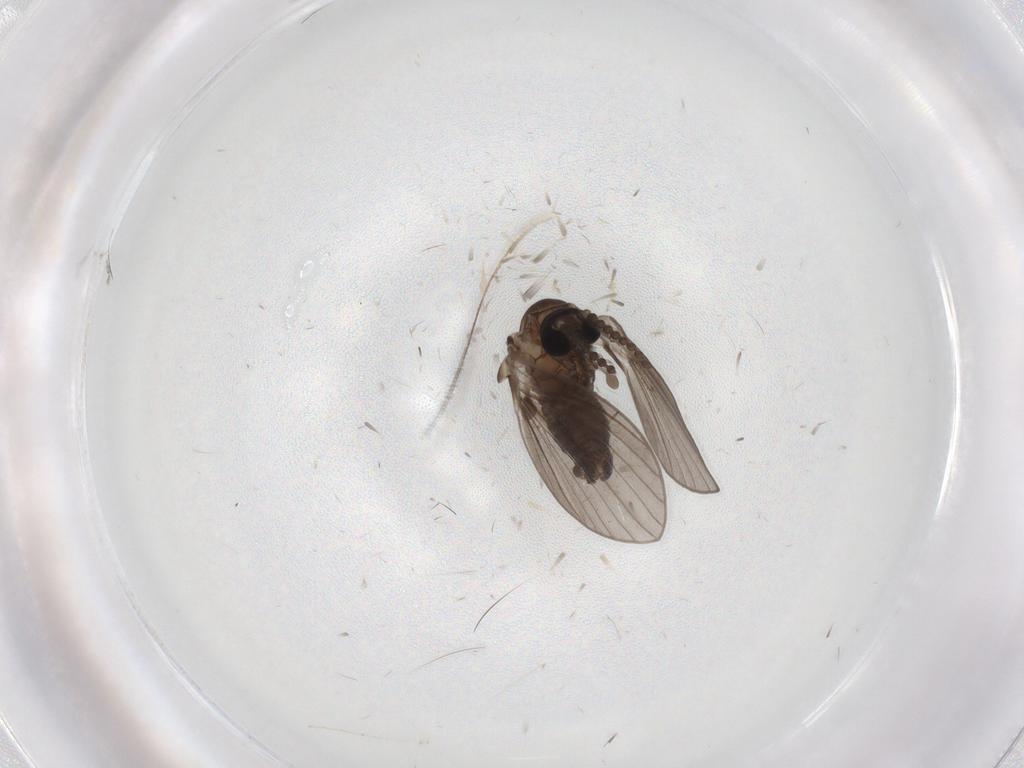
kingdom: Animalia
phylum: Arthropoda
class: Insecta
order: Diptera
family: Psychodidae
